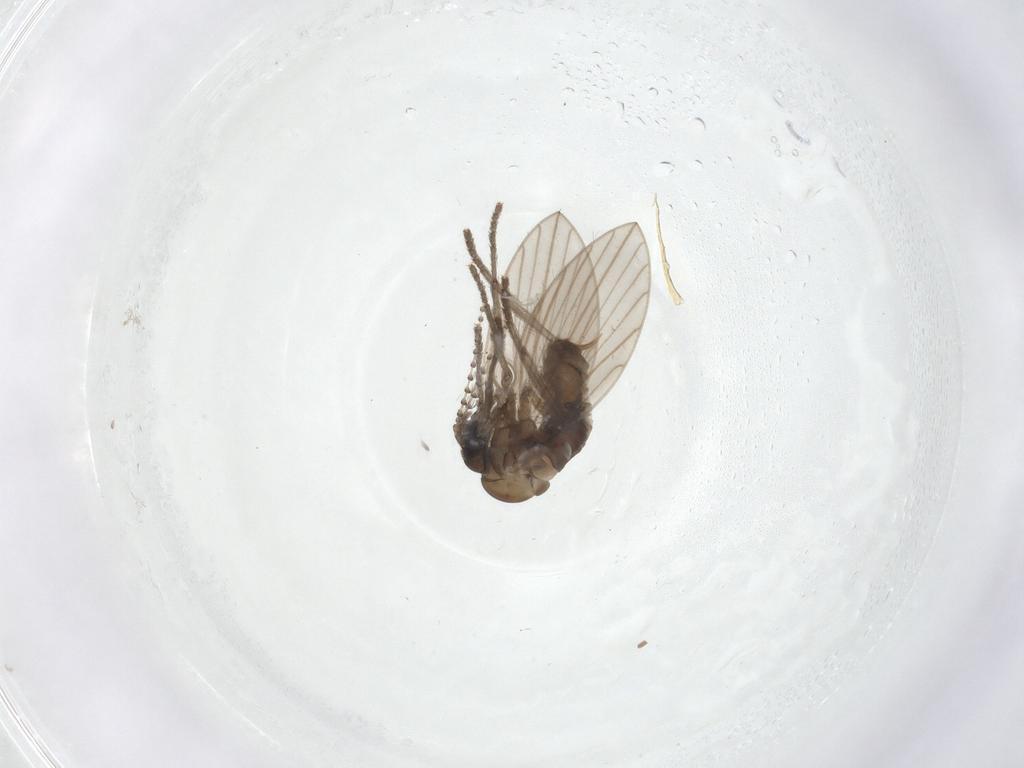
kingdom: Animalia
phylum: Arthropoda
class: Insecta
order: Diptera
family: Psychodidae
